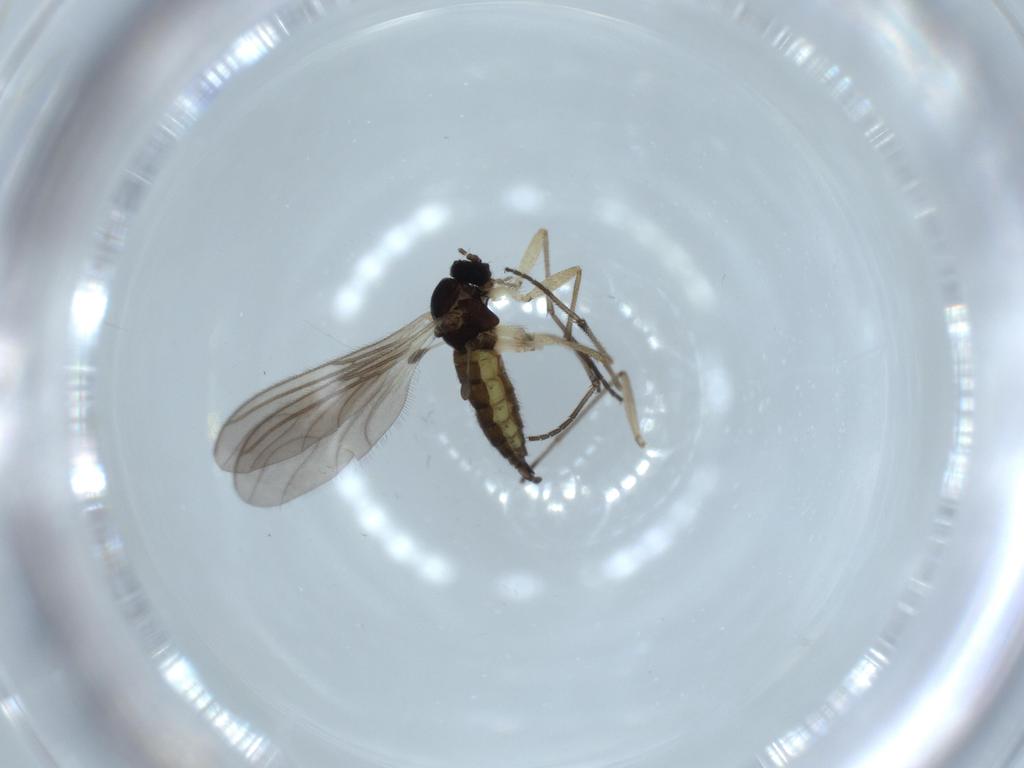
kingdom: Animalia
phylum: Arthropoda
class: Insecta
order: Diptera
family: Sciaridae
